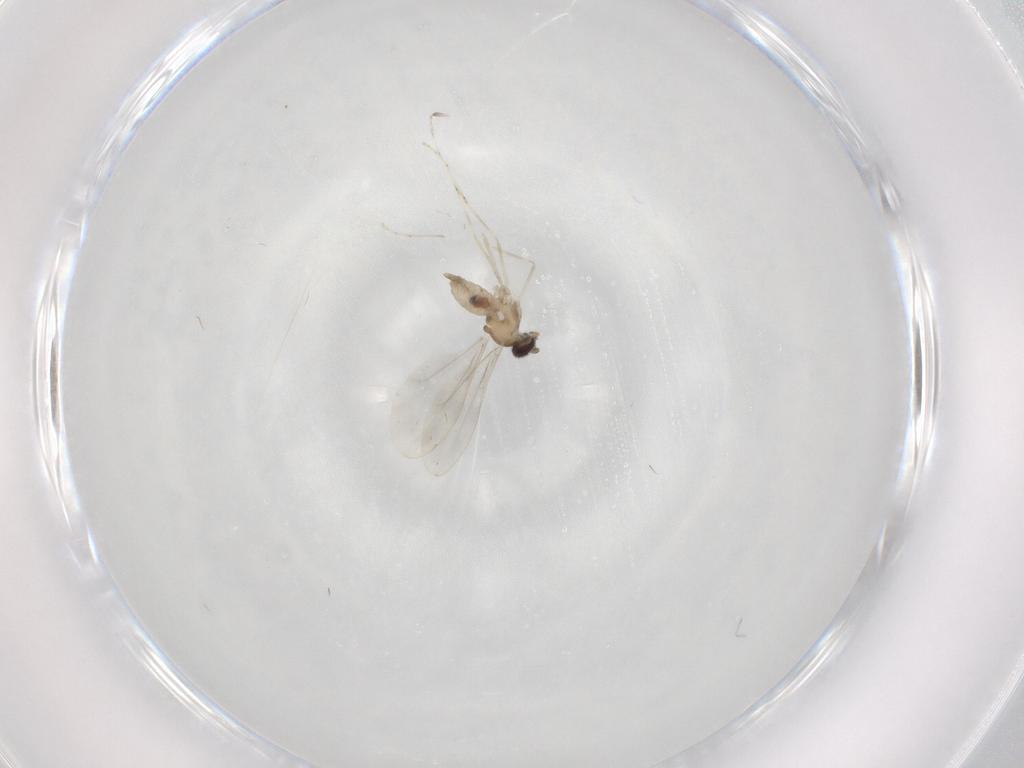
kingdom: Animalia
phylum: Arthropoda
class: Insecta
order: Diptera
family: Cecidomyiidae
